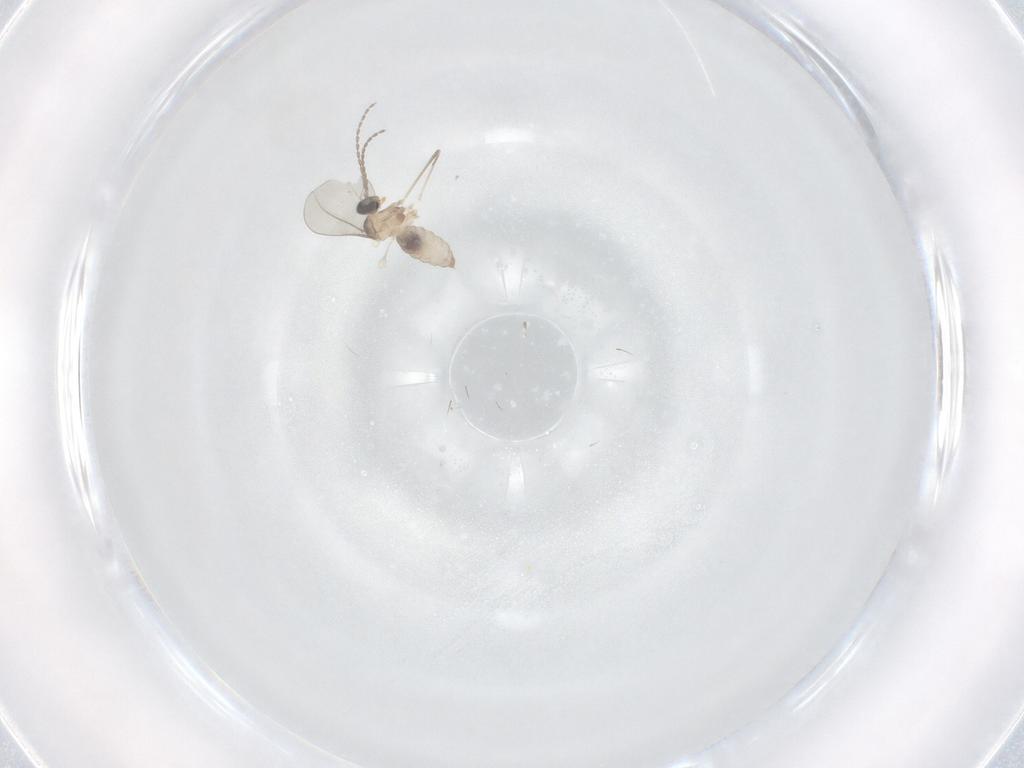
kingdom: Animalia
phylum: Arthropoda
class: Insecta
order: Diptera
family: Cecidomyiidae
